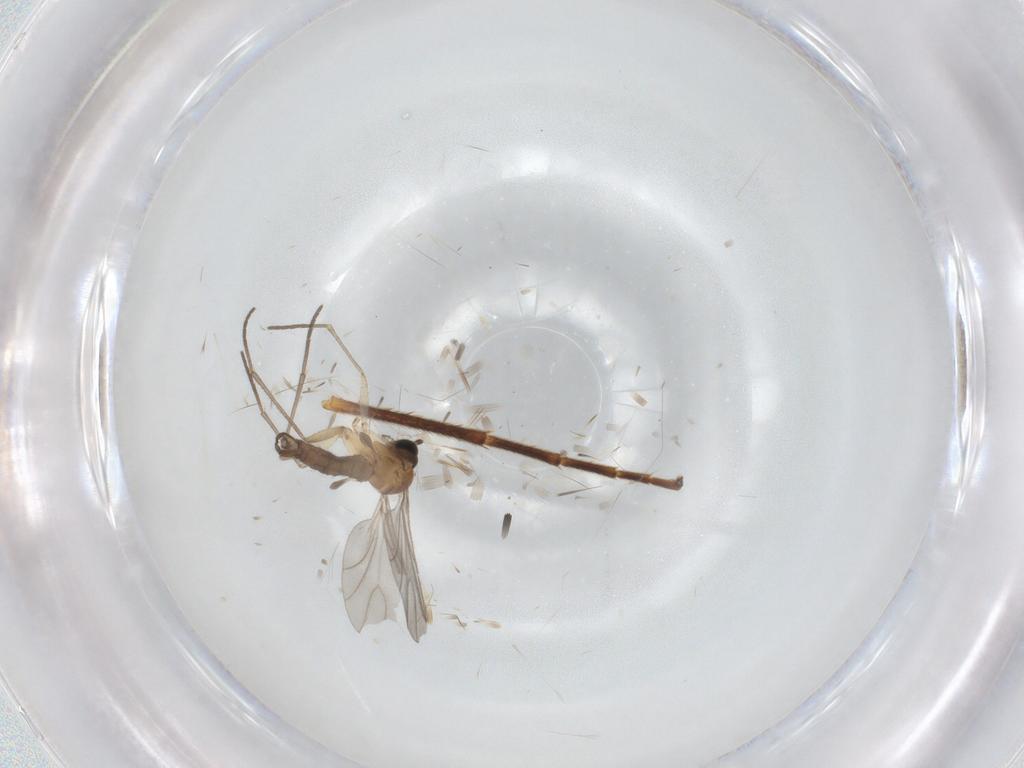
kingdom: Animalia
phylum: Arthropoda
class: Insecta
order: Diptera
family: Sciaridae
